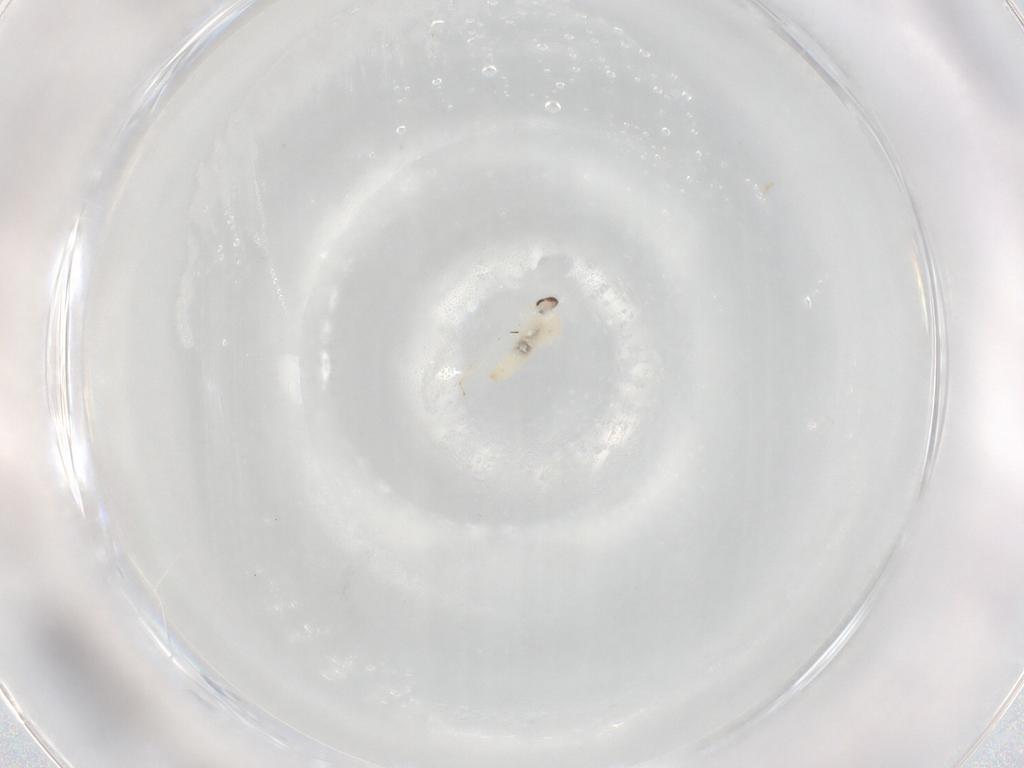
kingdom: Animalia
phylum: Arthropoda
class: Insecta
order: Diptera
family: Cecidomyiidae
